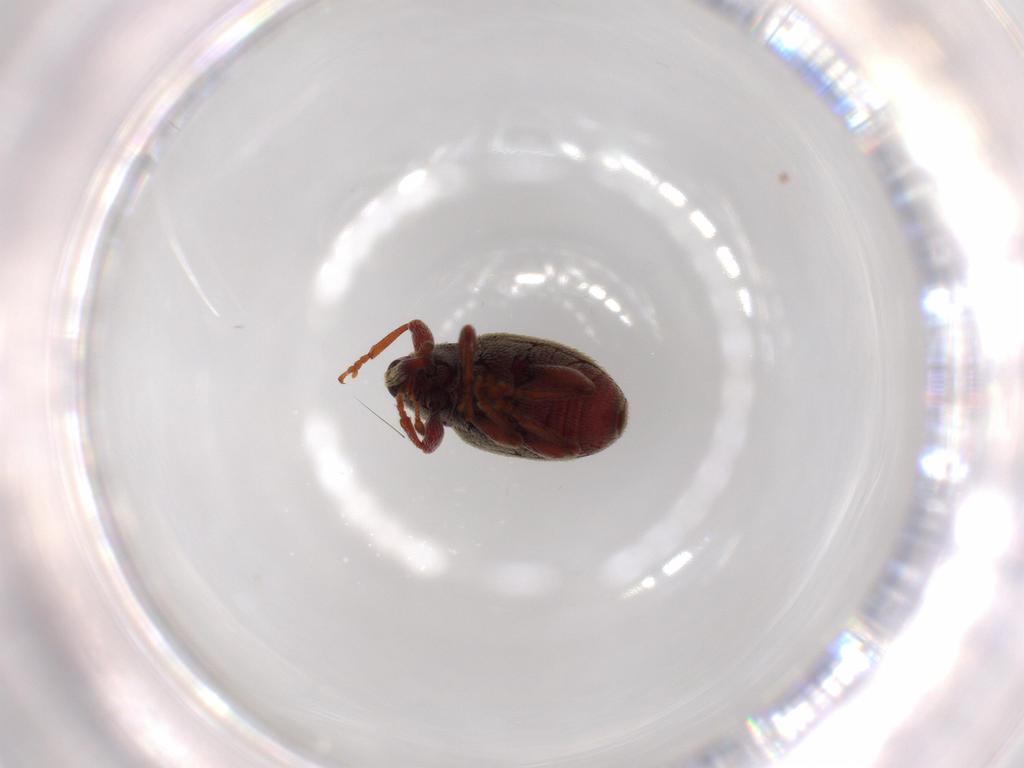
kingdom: Animalia
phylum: Arthropoda
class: Insecta
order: Coleoptera
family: Curculionidae
